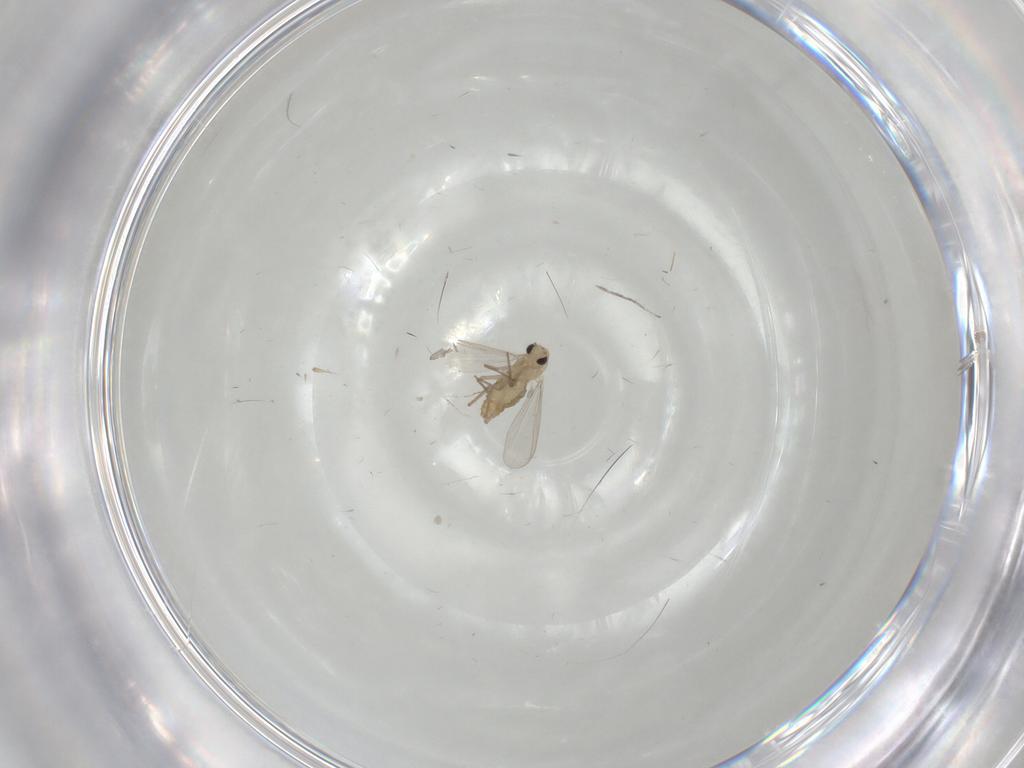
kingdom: Animalia
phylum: Arthropoda
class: Insecta
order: Diptera
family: Chironomidae
